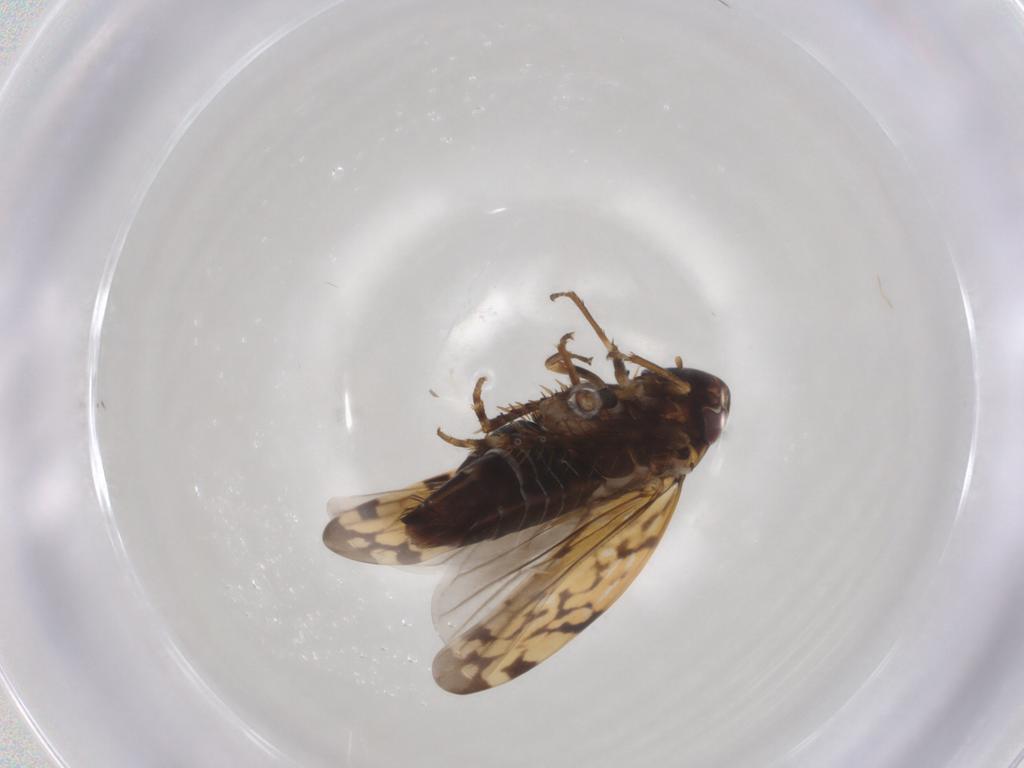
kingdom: Animalia
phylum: Arthropoda
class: Insecta
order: Hemiptera
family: Cicadellidae
